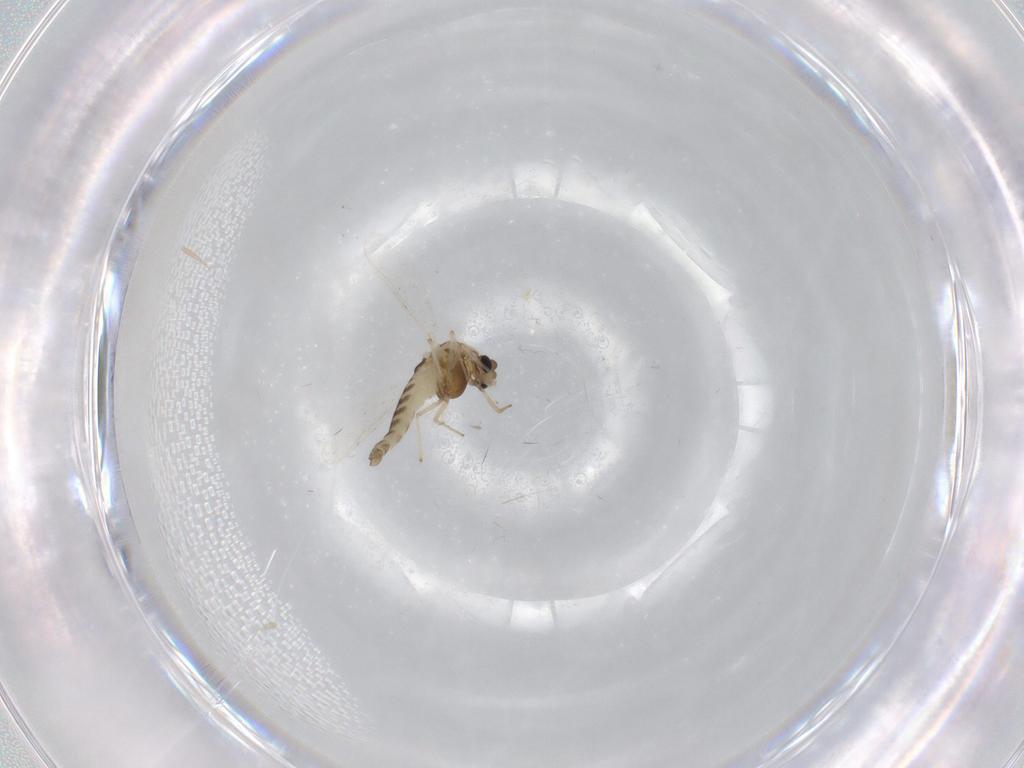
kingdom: Animalia
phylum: Arthropoda
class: Insecta
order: Diptera
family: Chironomidae
